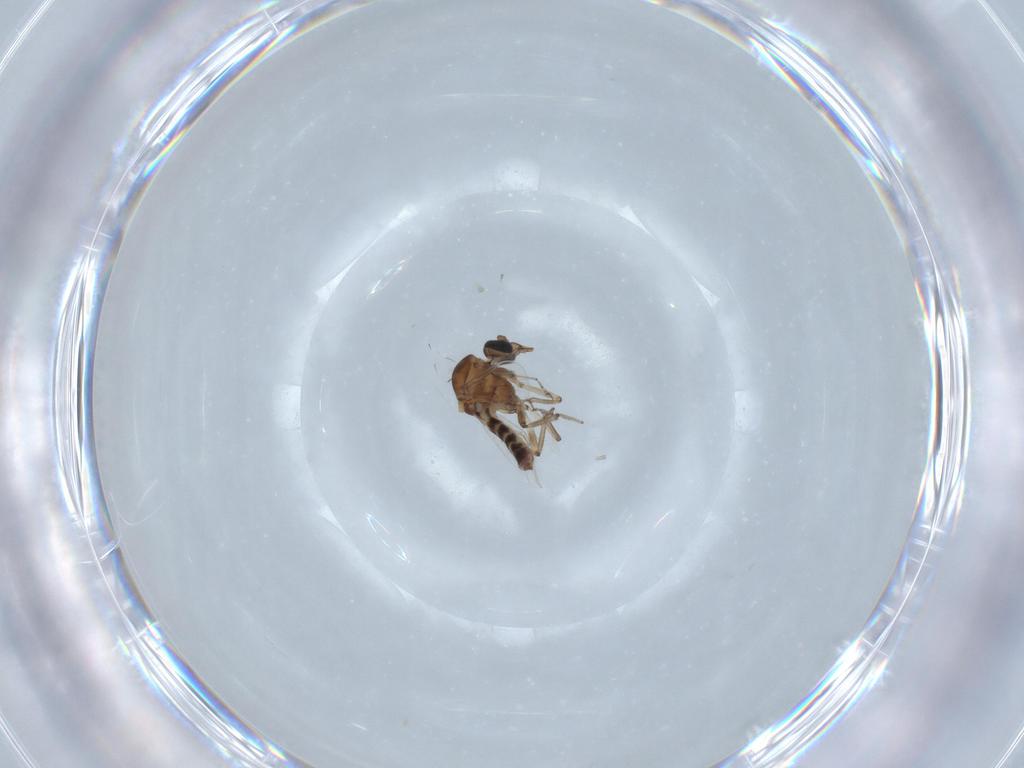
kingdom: Animalia
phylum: Arthropoda
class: Insecta
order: Diptera
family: Ceratopogonidae
